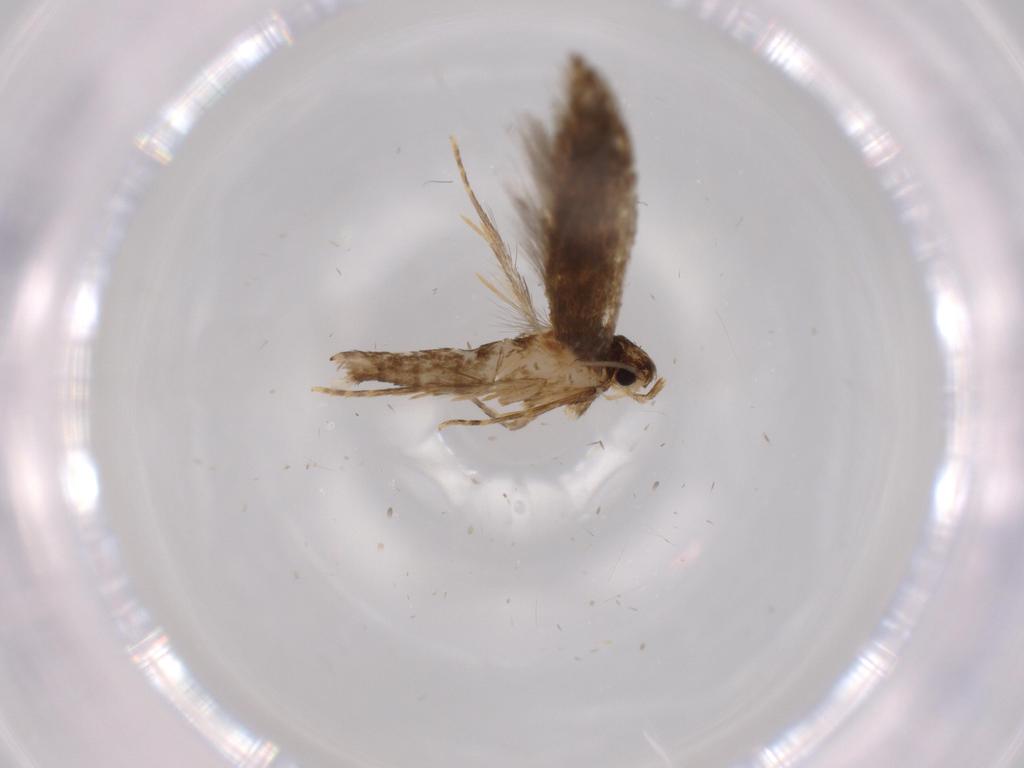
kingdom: Animalia
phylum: Arthropoda
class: Insecta
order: Lepidoptera
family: Tineidae
